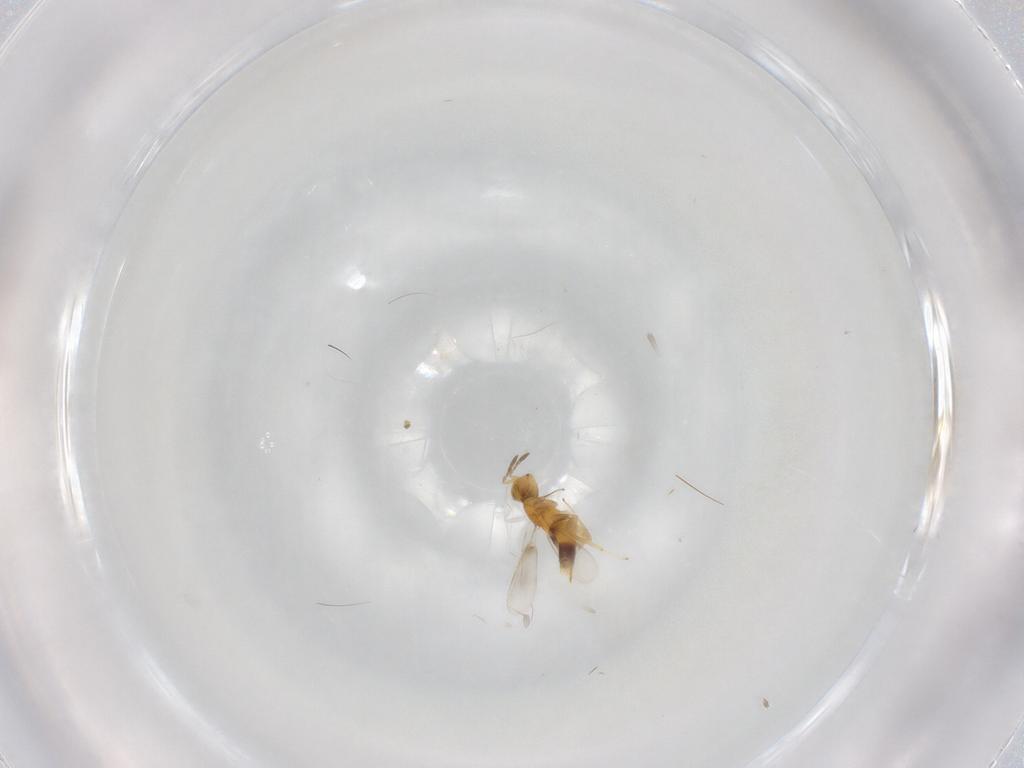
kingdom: Animalia
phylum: Arthropoda
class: Insecta
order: Hymenoptera
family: Aphelinidae
